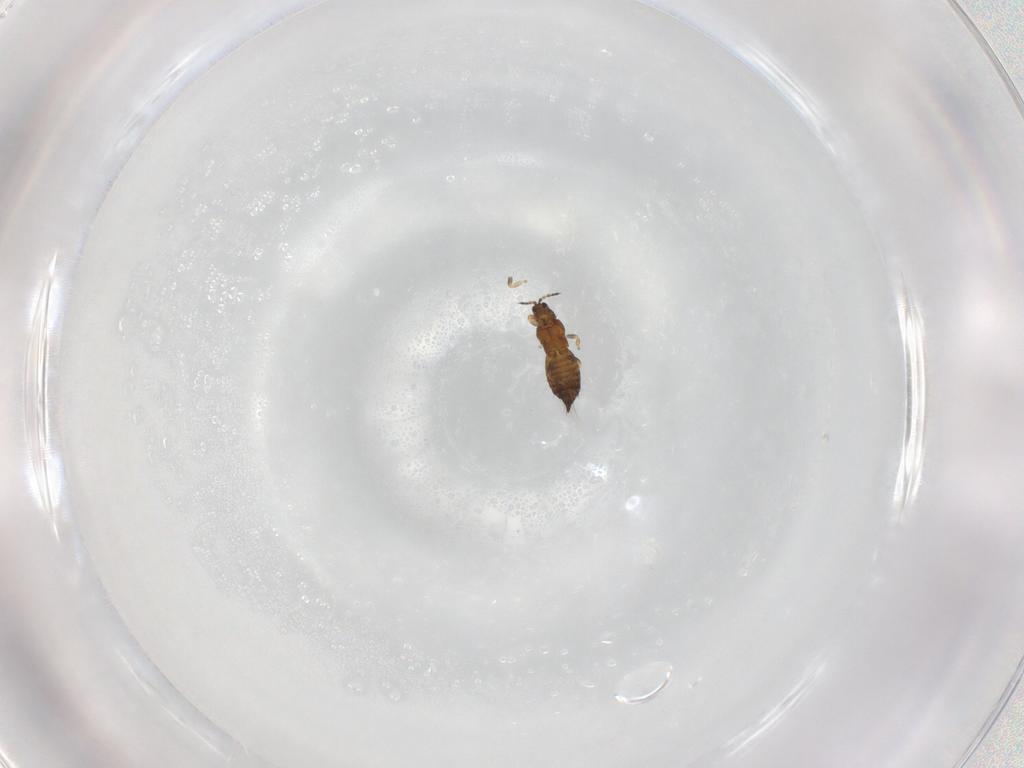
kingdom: Animalia
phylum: Arthropoda
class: Insecta
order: Thysanoptera
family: Thripidae
